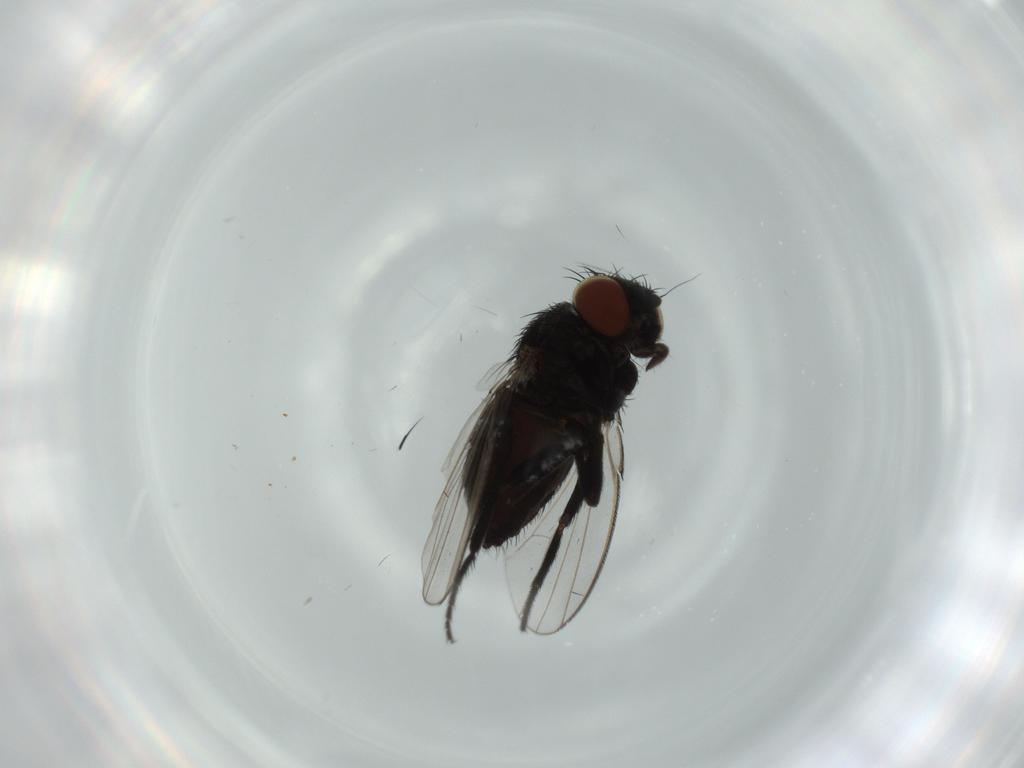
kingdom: Animalia
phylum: Arthropoda
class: Insecta
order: Diptera
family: Cecidomyiidae
